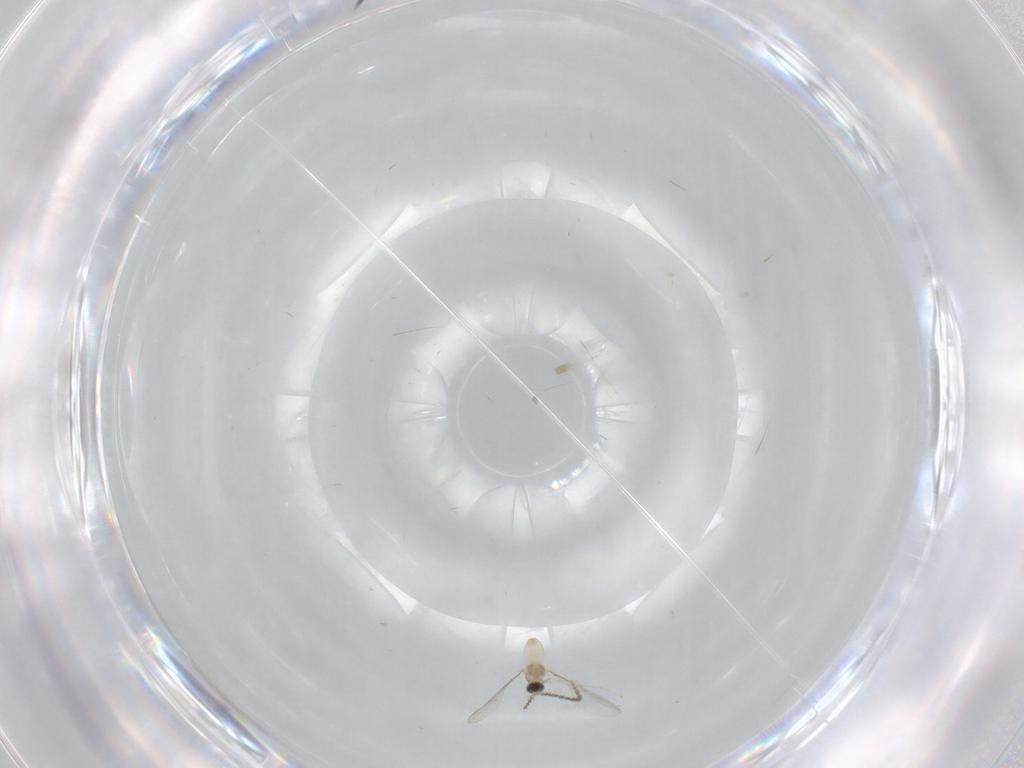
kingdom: Animalia
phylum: Arthropoda
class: Insecta
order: Diptera
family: Cecidomyiidae
